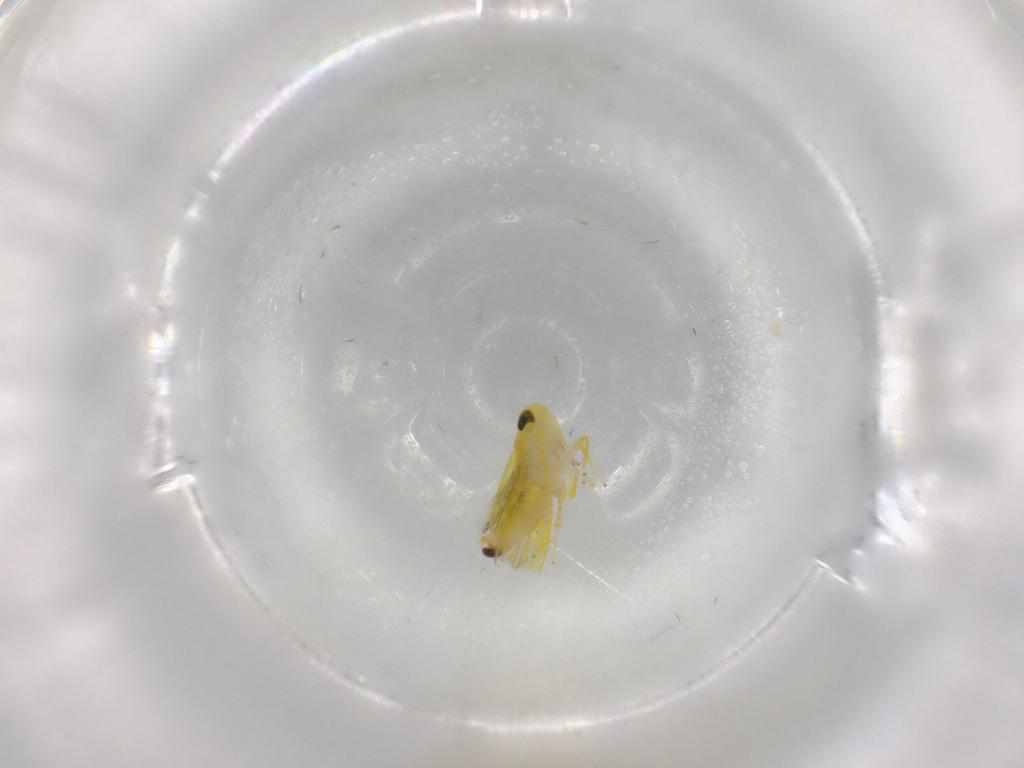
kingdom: Animalia
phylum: Arthropoda
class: Insecta
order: Hemiptera
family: Cicadellidae
